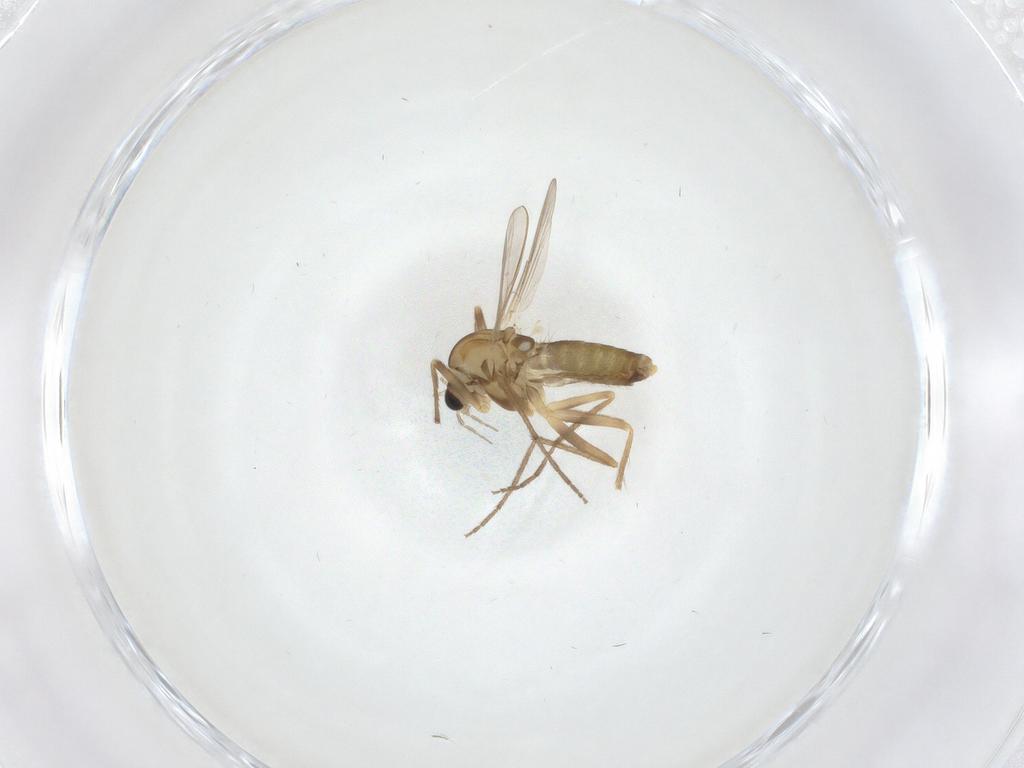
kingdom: Animalia
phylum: Arthropoda
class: Insecta
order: Diptera
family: Chironomidae
